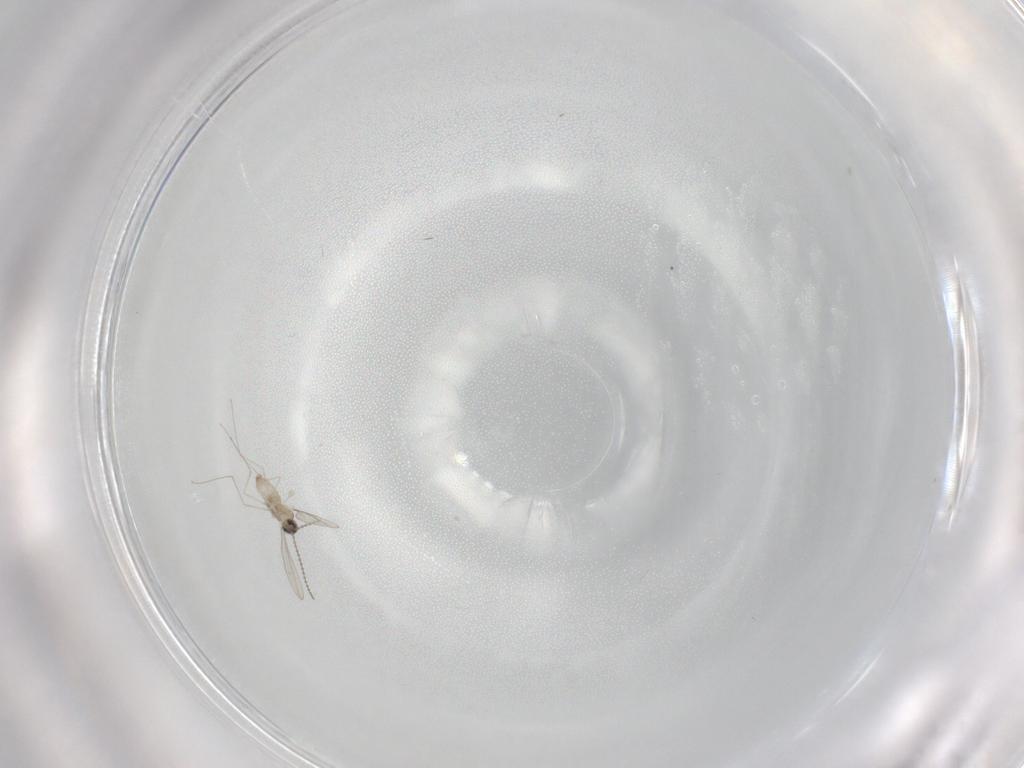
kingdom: Animalia
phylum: Arthropoda
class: Insecta
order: Diptera
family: Cecidomyiidae
